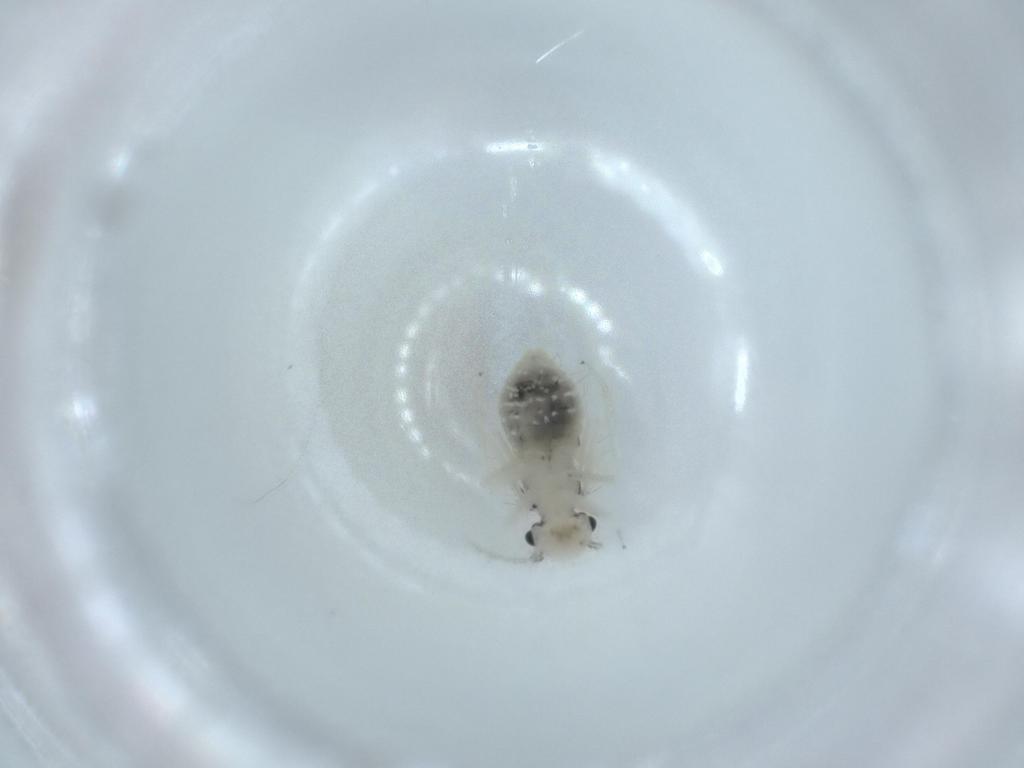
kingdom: Animalia
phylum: Arthropoda
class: Insecta
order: Psocodea
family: Caeciliusidae
